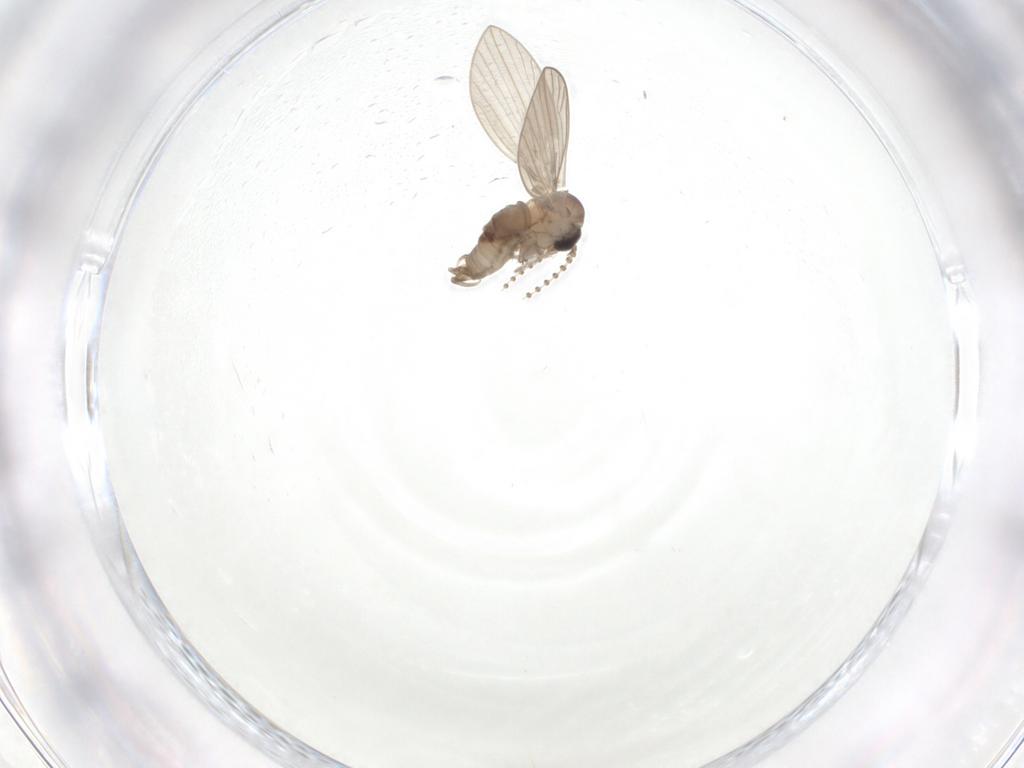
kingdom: Animalia
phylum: Arthropoda
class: Insecta
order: Diptera
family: Psychodidae
